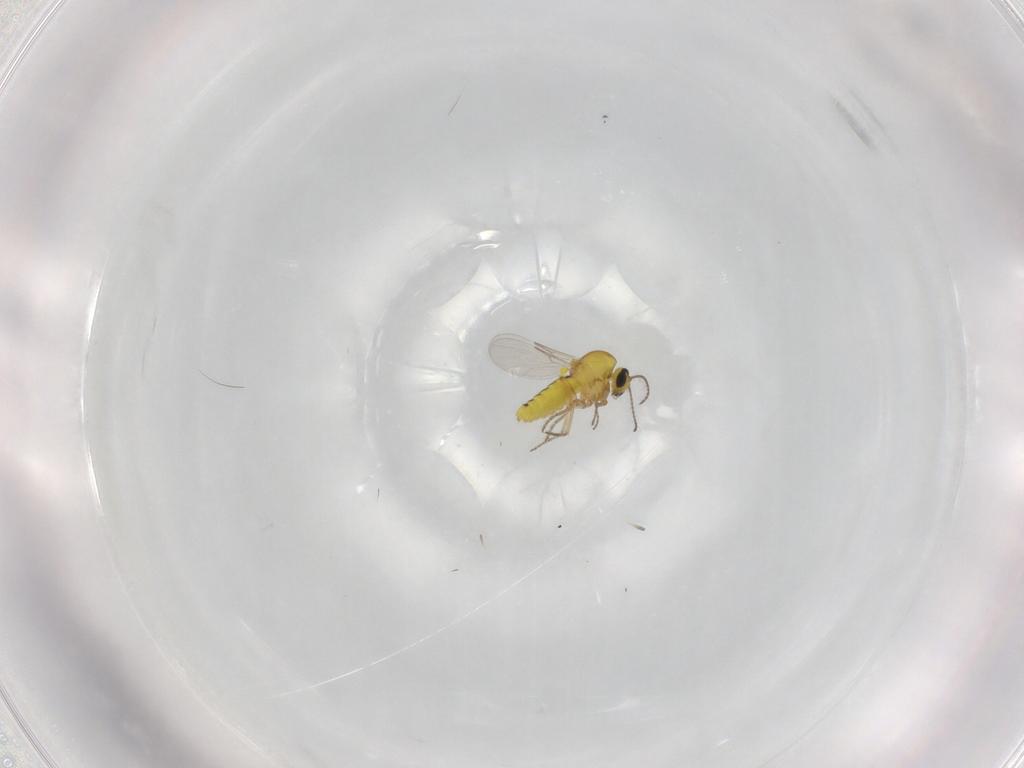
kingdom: Animalia
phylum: Arthropoda
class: Insecta
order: Diptera
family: Ceratopogonidae
